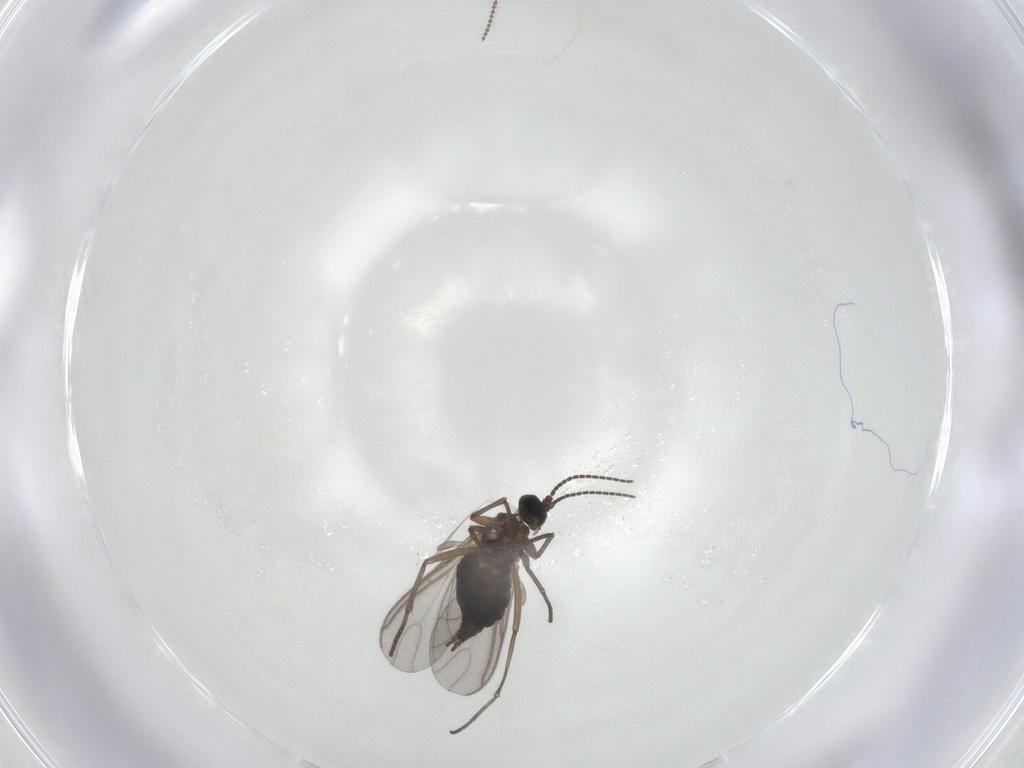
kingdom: Animalia
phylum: Arthropoda
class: Insecta
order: Diptera
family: Sciaridae
